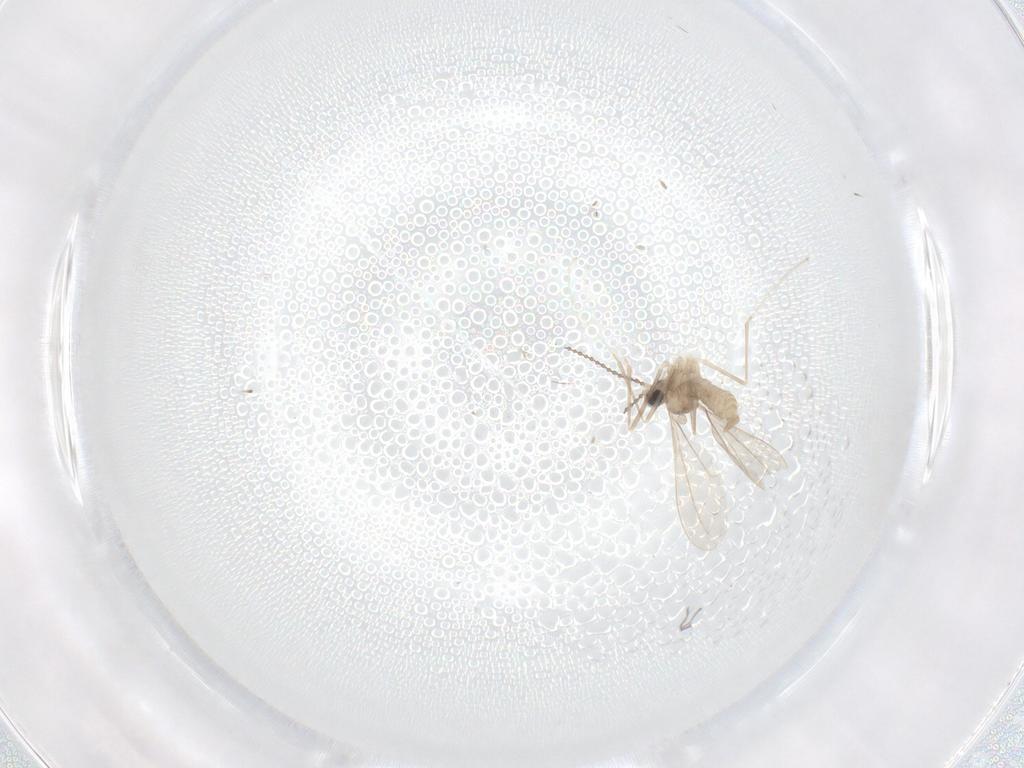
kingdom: Animalia
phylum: Arthropoda
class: Insecta
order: Diptera
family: Cecidomyiidae
